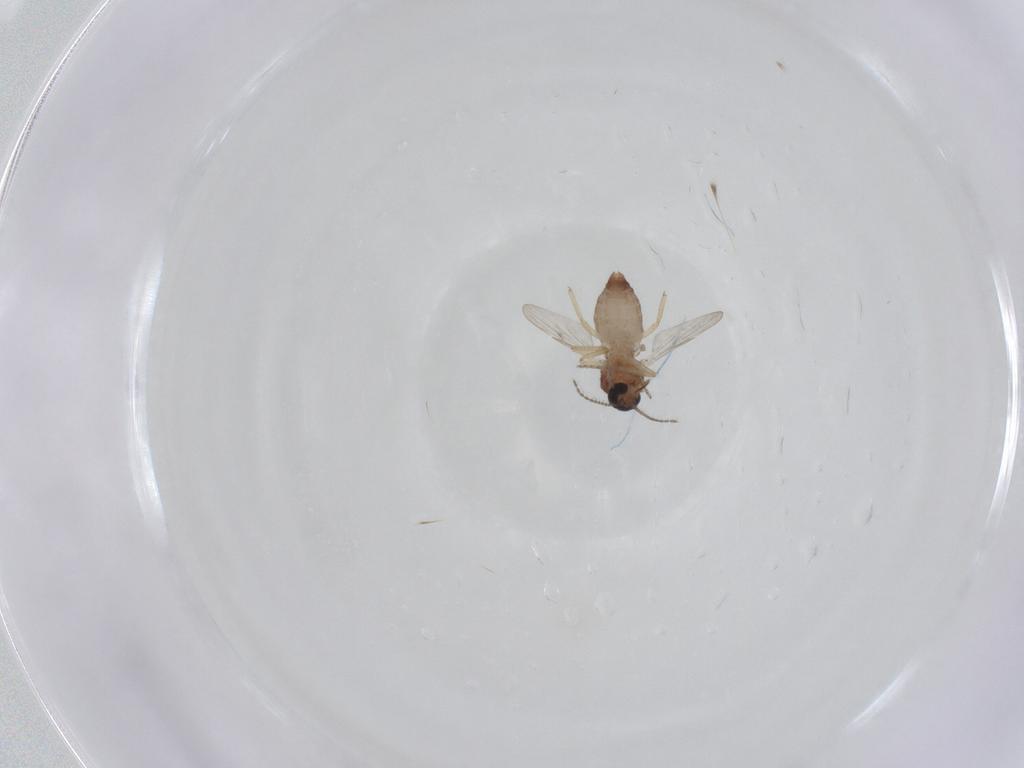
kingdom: Animalia
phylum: Arthropoda
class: Insecta
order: Diptera
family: Ceratopogonidae
